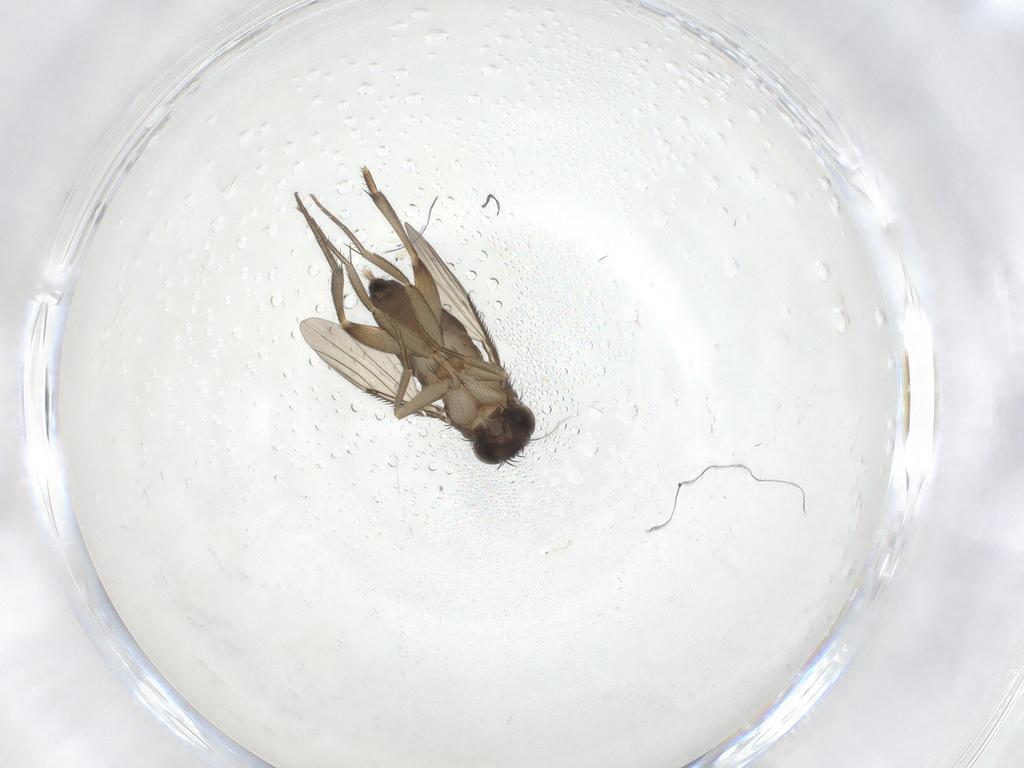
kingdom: Animalia
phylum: Arthropoda
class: Insecta
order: Diptera
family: Phoridae
